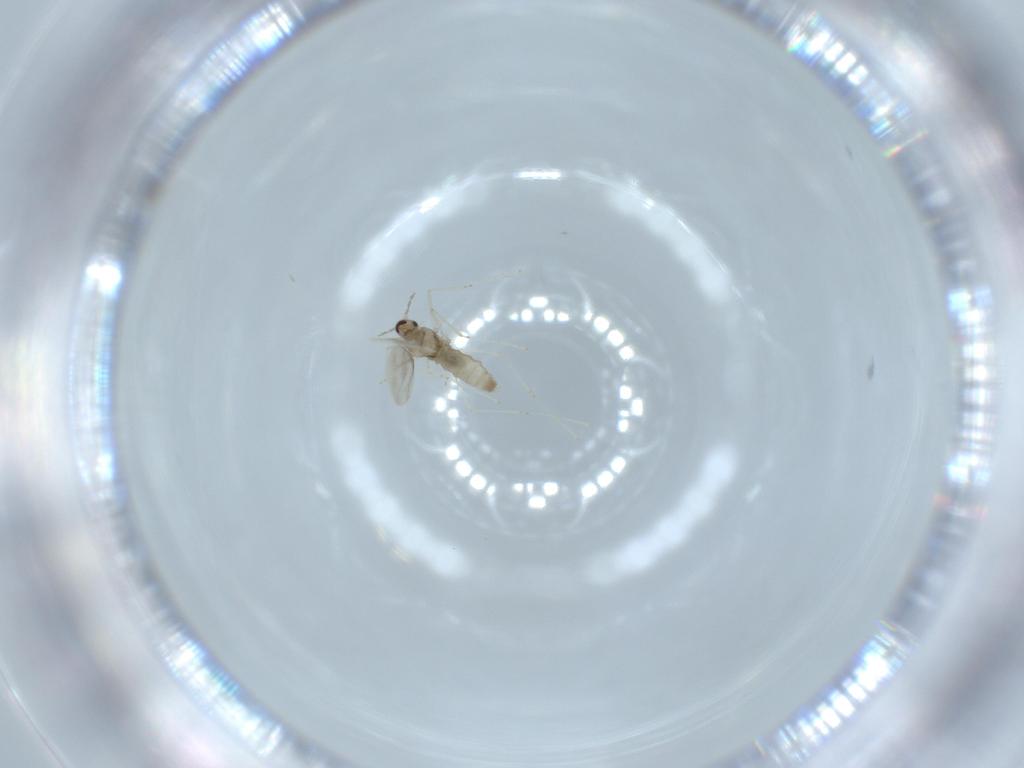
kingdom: Animalia
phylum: Arthropoda
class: Insecta
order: Diptera
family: Cecidomyiidae
